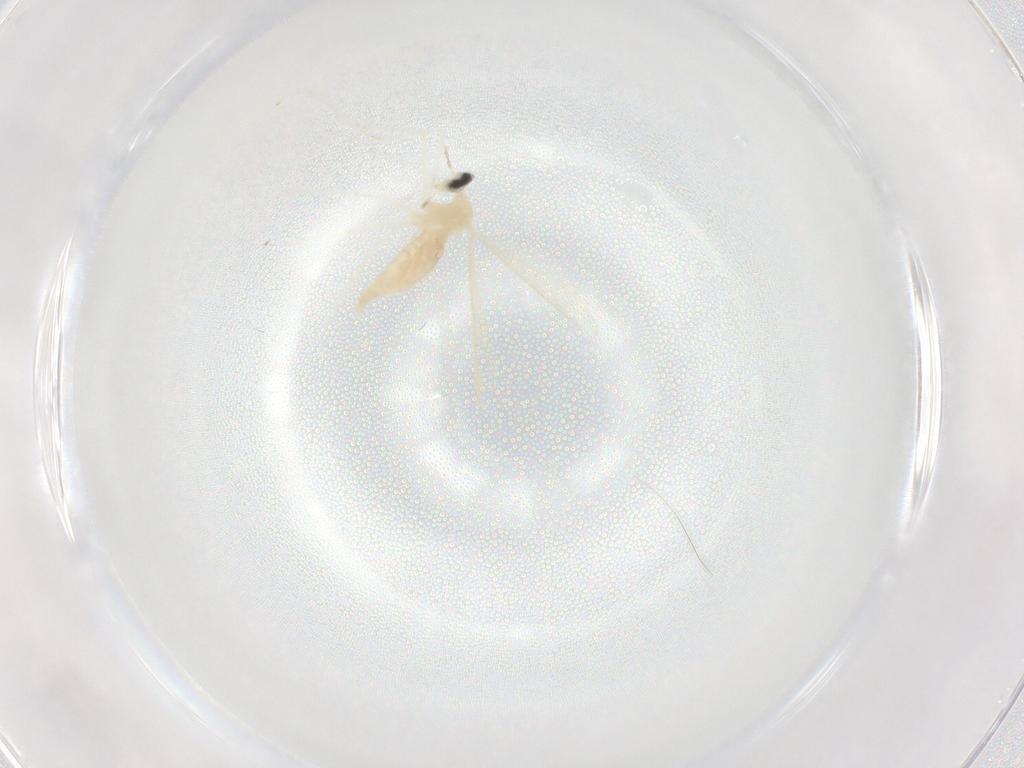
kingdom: Animalia
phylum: Arthropoda
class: Insecta
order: Diptera
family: Cecidomyiidae
